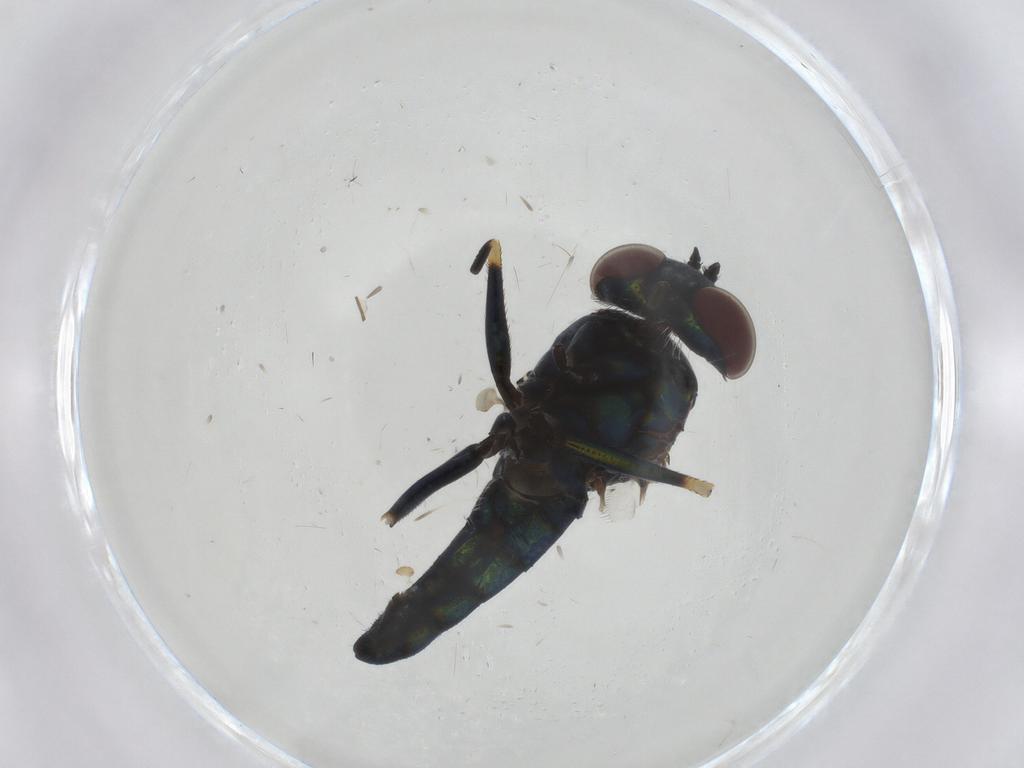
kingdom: Animalia
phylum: Arthropoda
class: Insecta
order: Diptera
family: Dolichopodidae
